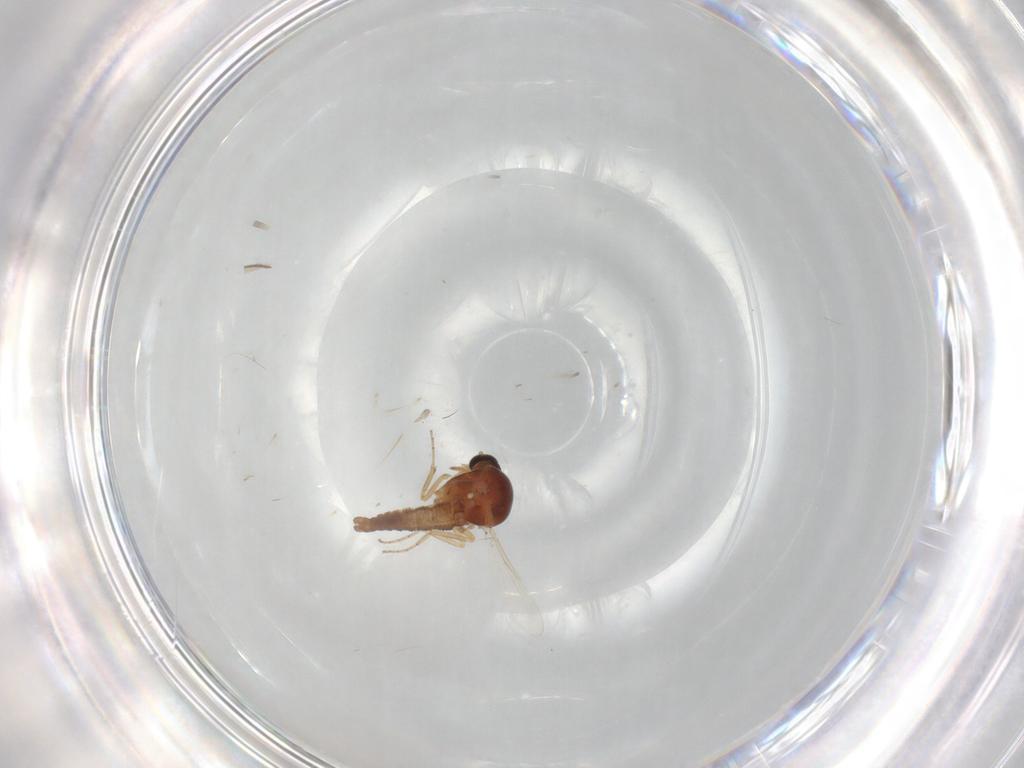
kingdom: Animalia
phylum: Arthropoda
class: Insecta
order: Diptera
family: Ceratopogonidae
